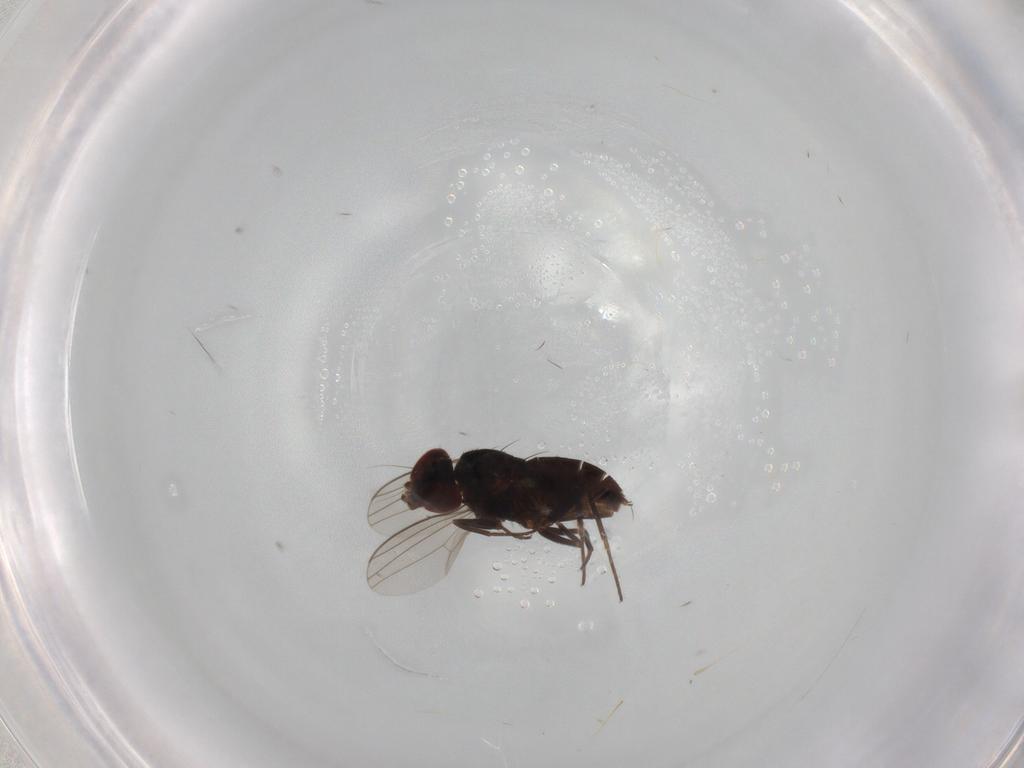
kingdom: Animalia
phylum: Arthropoda
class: Insecta
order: Diptera
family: Dolichopodidae
